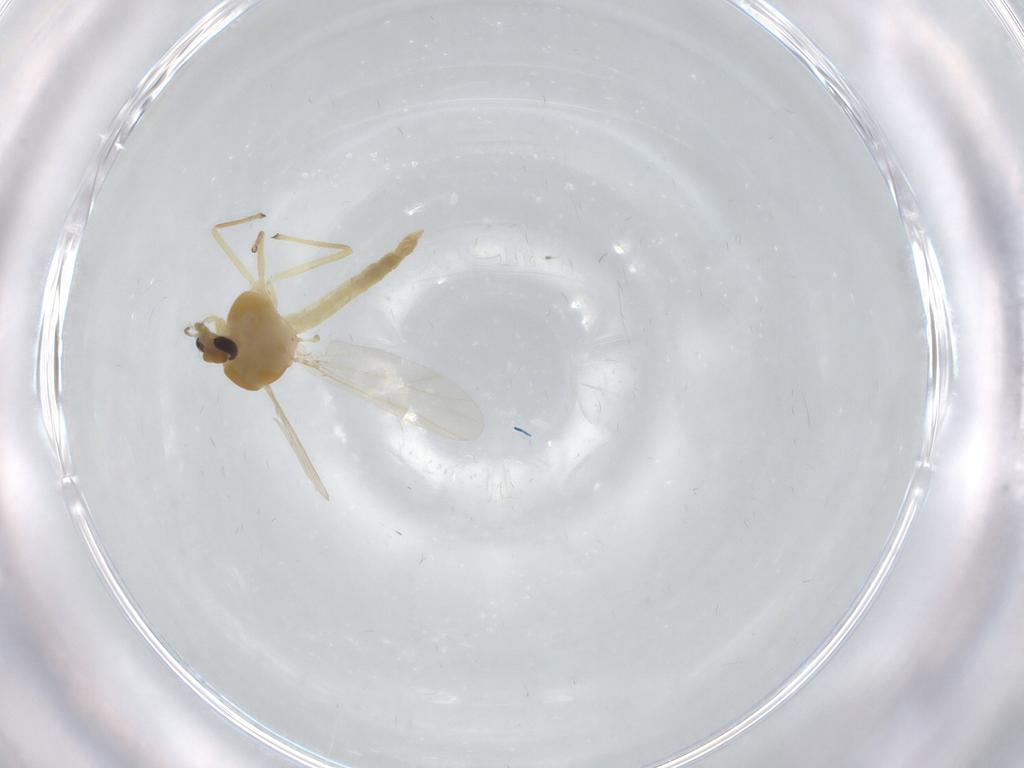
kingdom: Animalia
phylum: Arthropoda
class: Insecta
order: Diptera
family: Chironomidae
